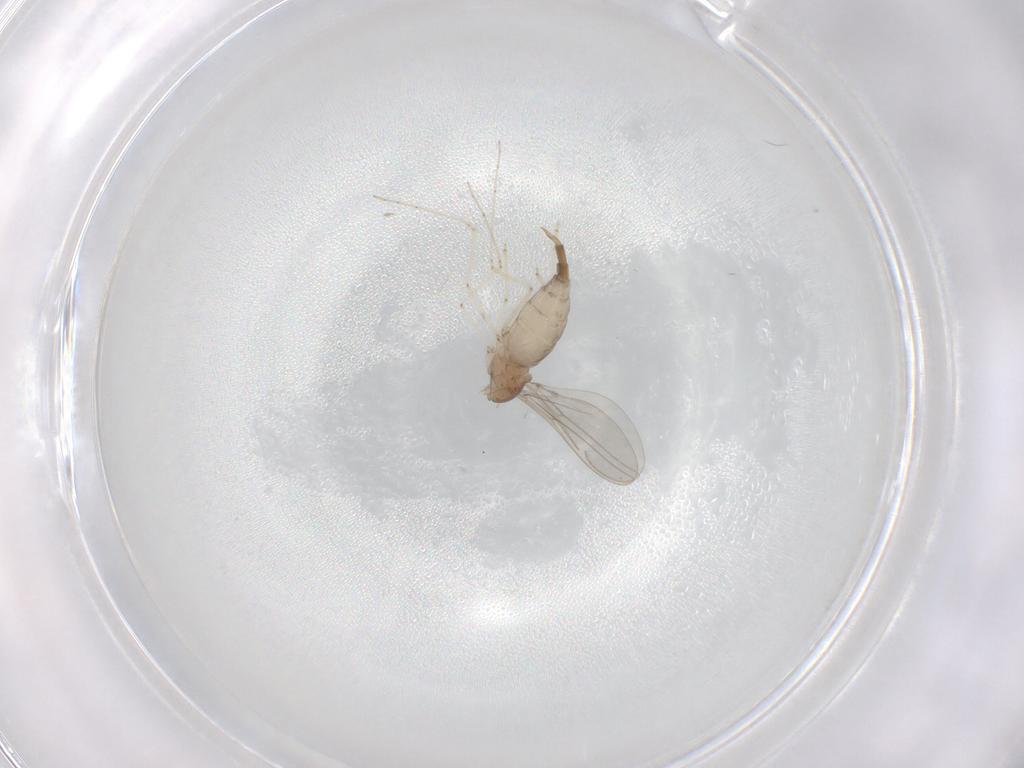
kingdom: Animalia
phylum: Arthropoda
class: Insecta
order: Diptera
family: Cecidomyiidae
